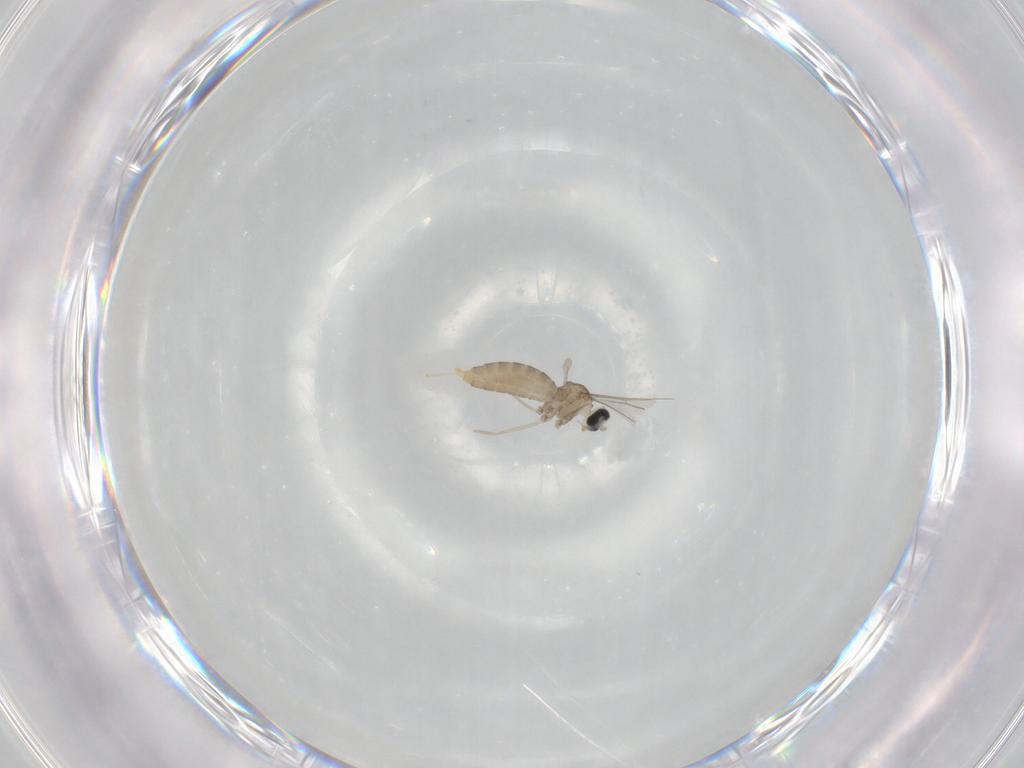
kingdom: Animalia
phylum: Arthropoda
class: Insecta
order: Diptera
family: Cecidomyiidae
